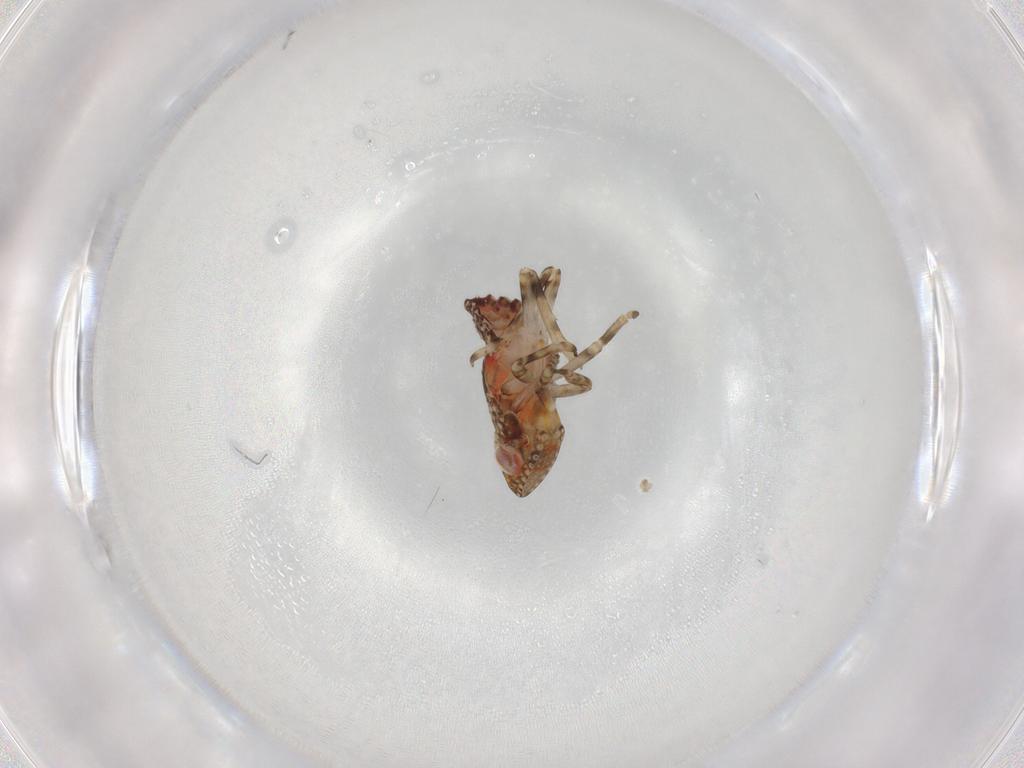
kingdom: Animalia
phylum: Arthropoda
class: Insecta
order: Hemiptera
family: Tropiduchidae
